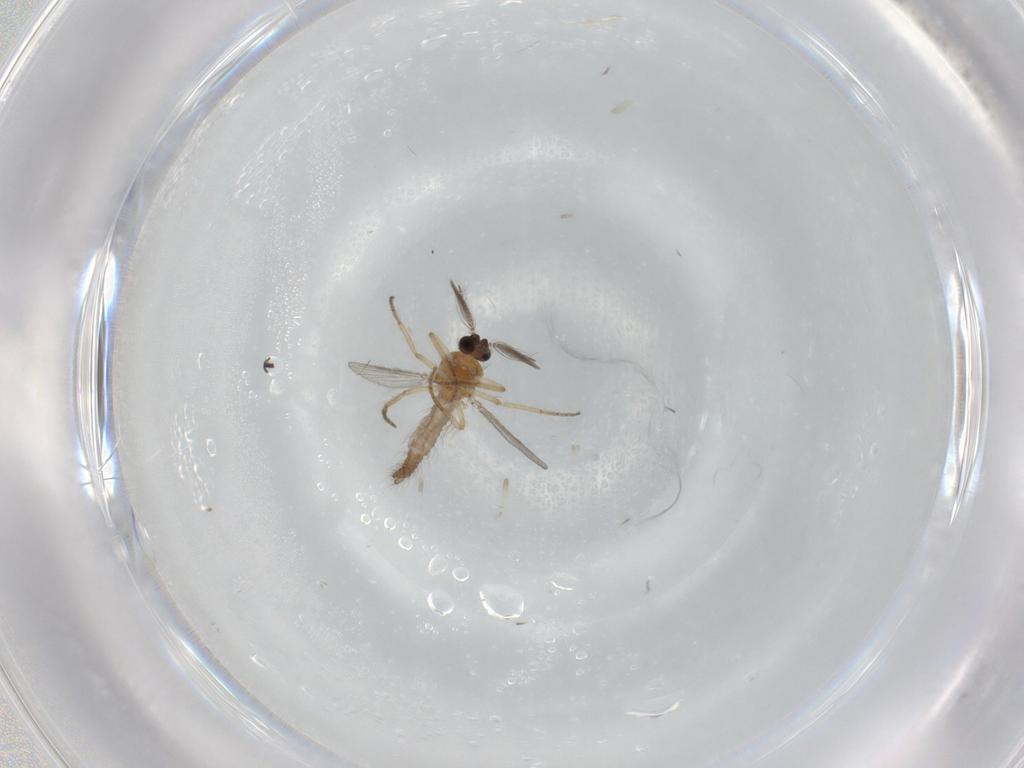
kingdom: Animalia
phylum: Arthropoda
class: Insecta
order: Diptera
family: Ceratopogonidae
